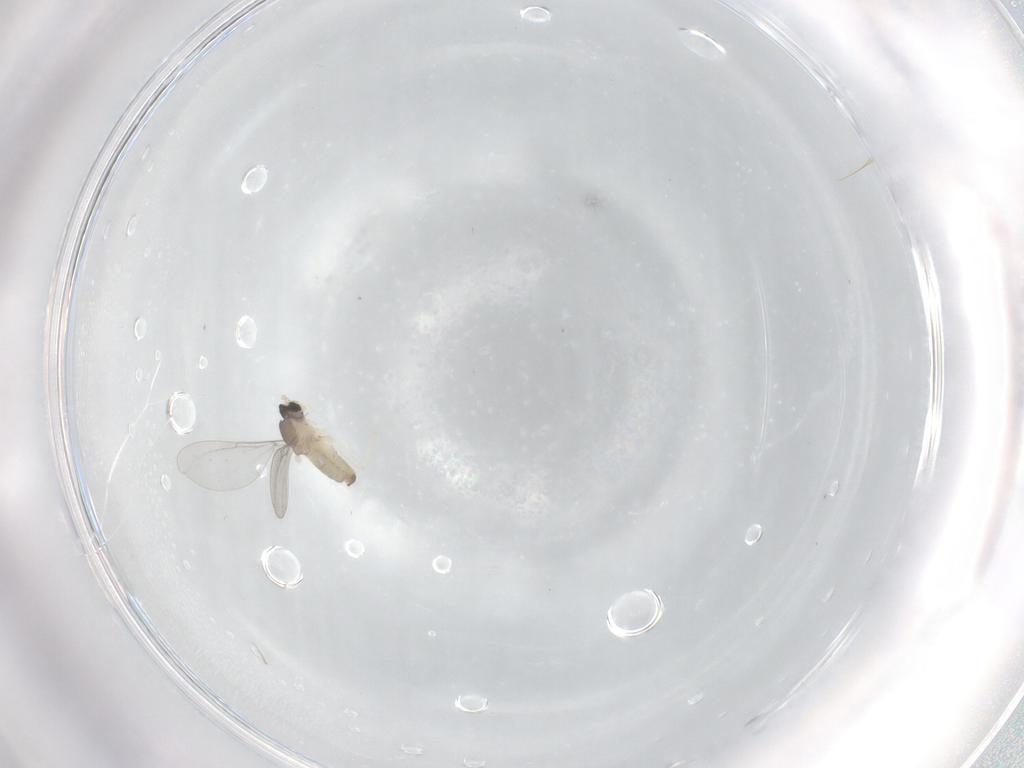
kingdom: Animalia
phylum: Arthropoda
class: Insecta
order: Diptera
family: Cecidomyiidae
